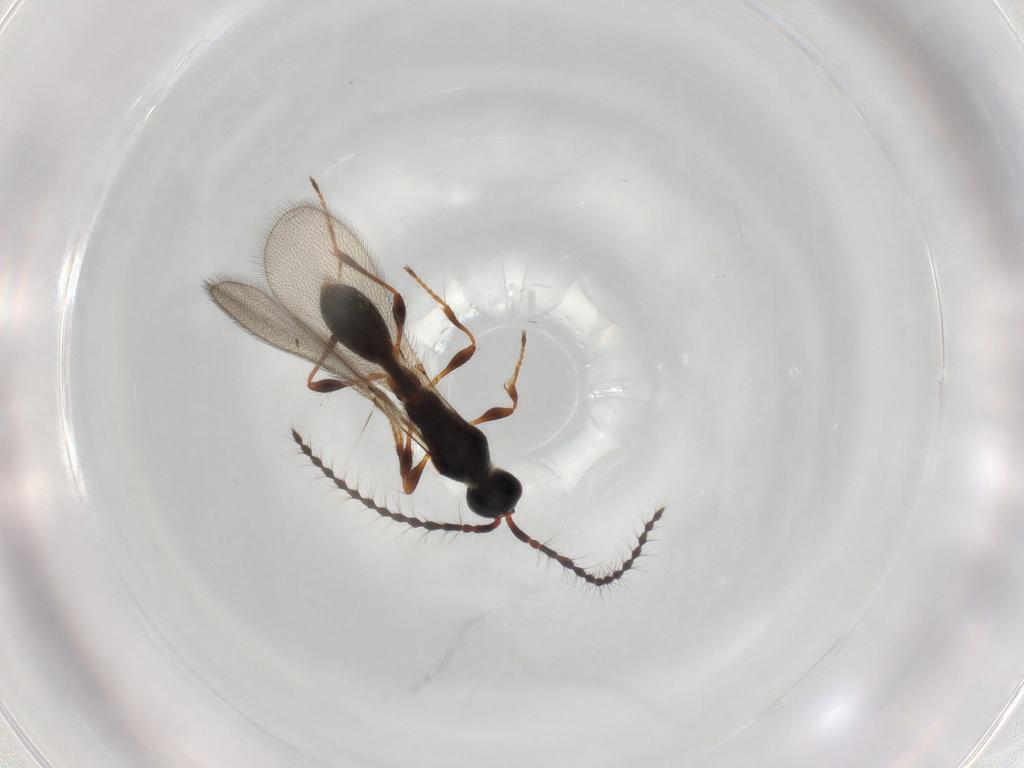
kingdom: Animalia
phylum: Arthropoda
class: Insecta
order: Hymenoptera
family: Diapriidae
